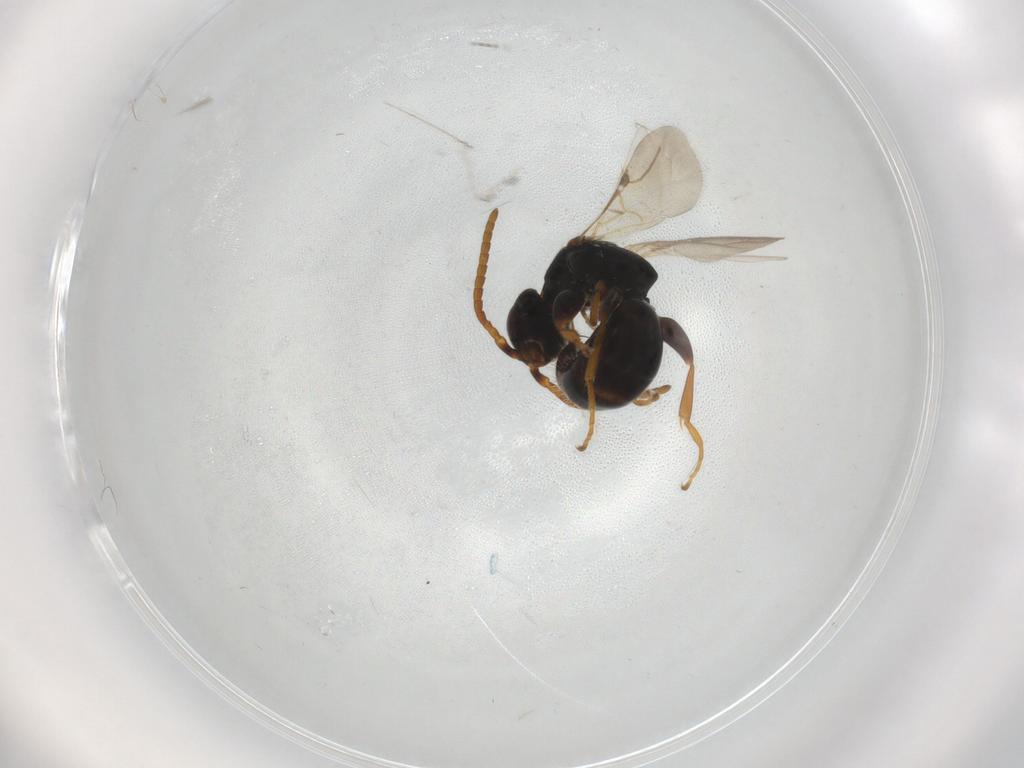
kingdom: Animalia
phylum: Arthropoda
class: Insecta
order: Hymenoptera
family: Bethylidae
